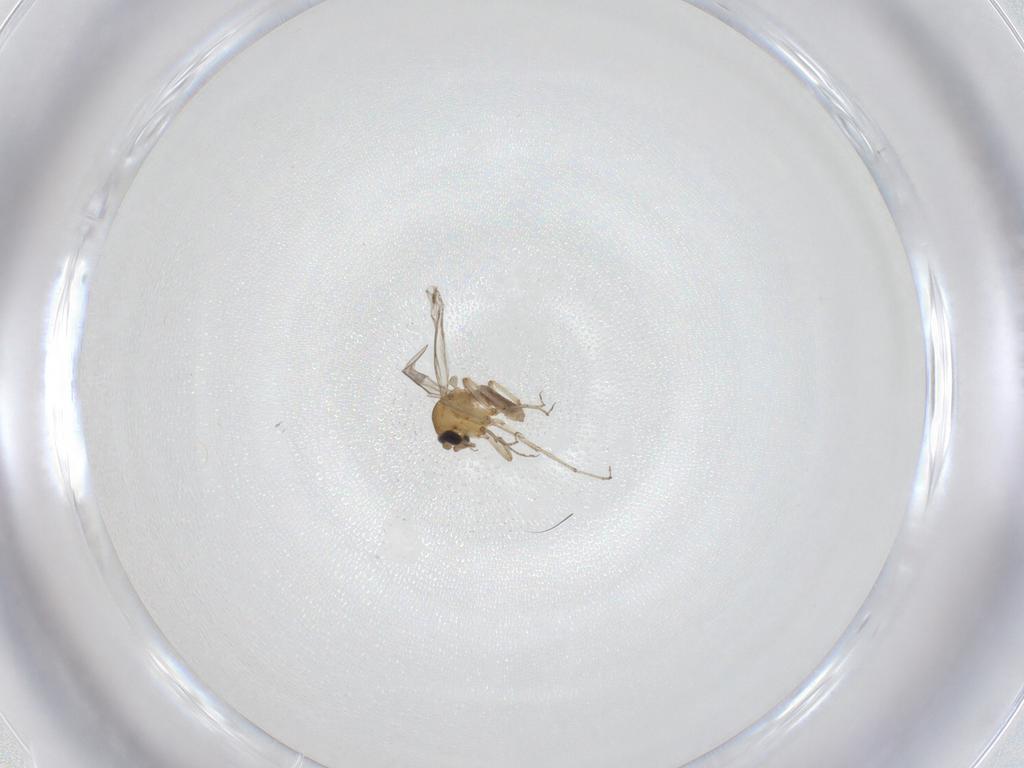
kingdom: Animalia
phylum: Arthropoda
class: Insecta
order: Diptera
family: Ceratopogonidae
